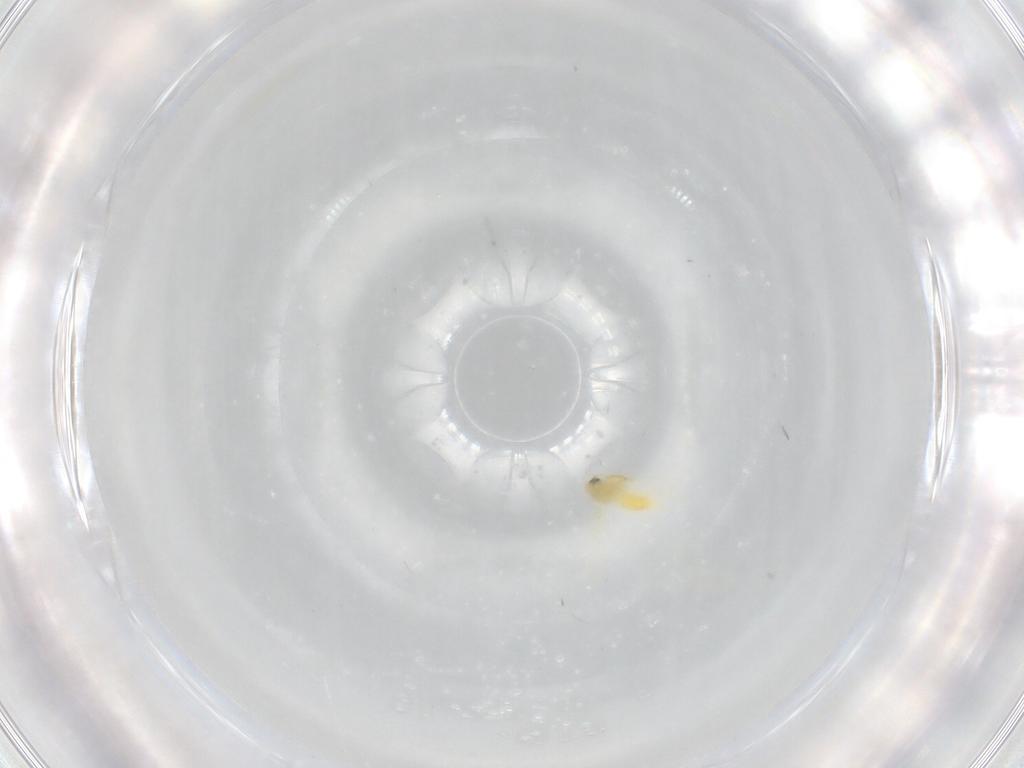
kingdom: Animalia
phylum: Arthropoda
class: Insecta
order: Hemiptera
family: Aleyrodidae
